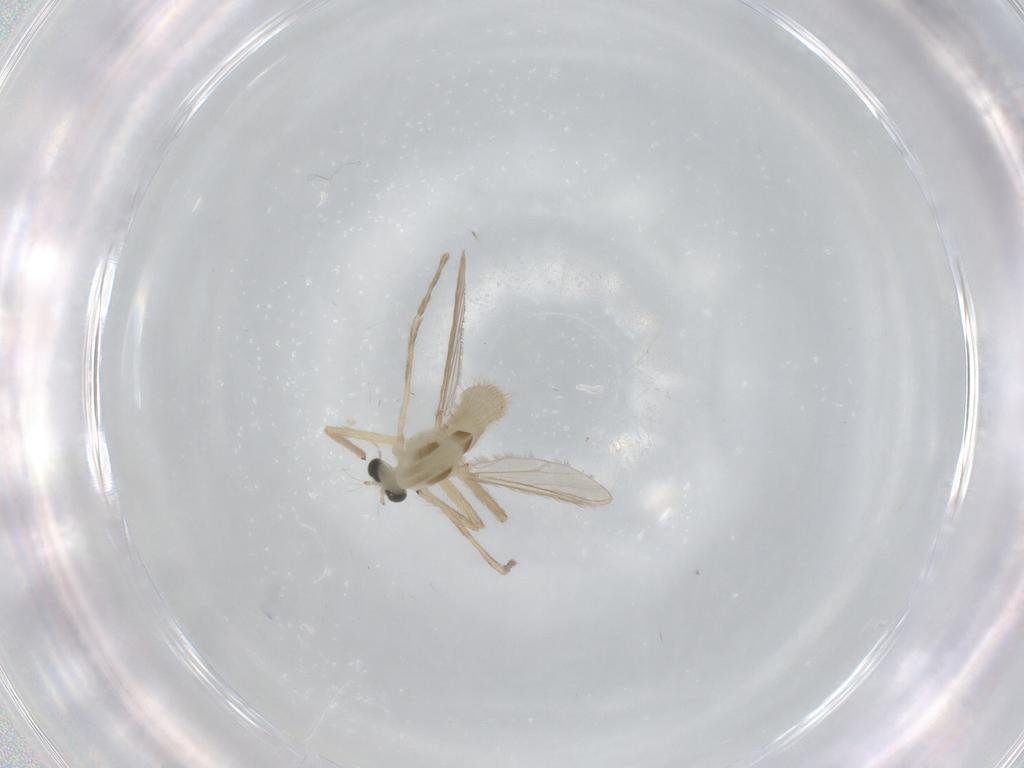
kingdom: Animalia
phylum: Arthropoda
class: Insecta
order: Diptera
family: Chironomidae
